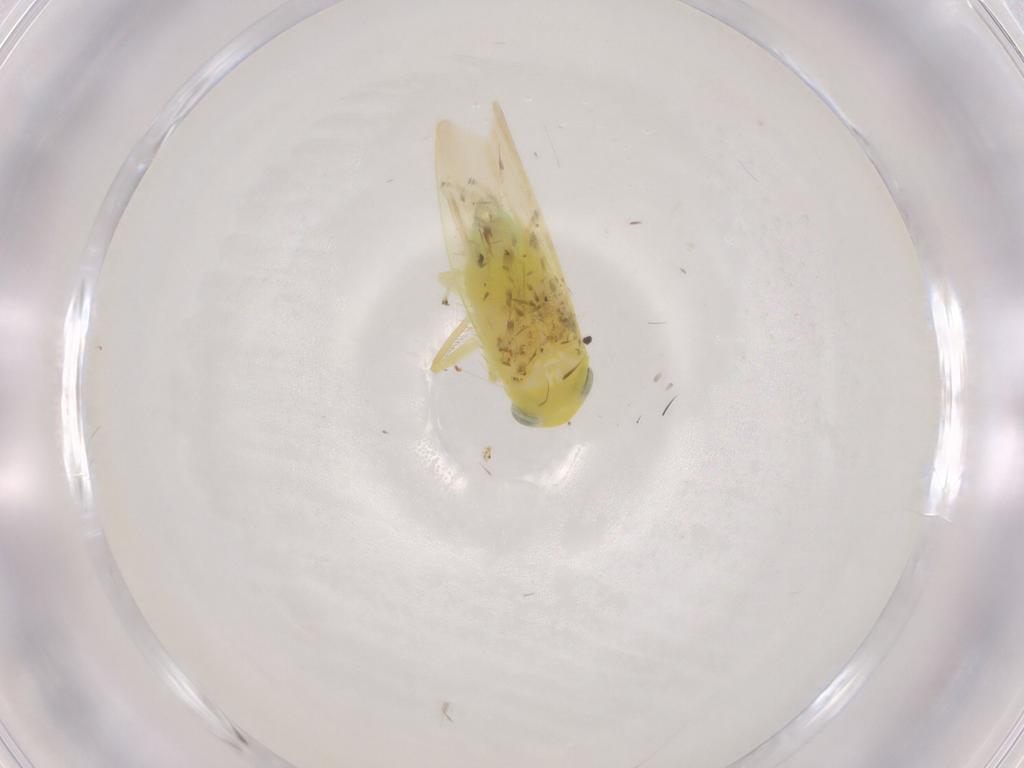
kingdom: Animalia
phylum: Arthropoda
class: Insecta
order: Hemiptera
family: Cicadellidae
